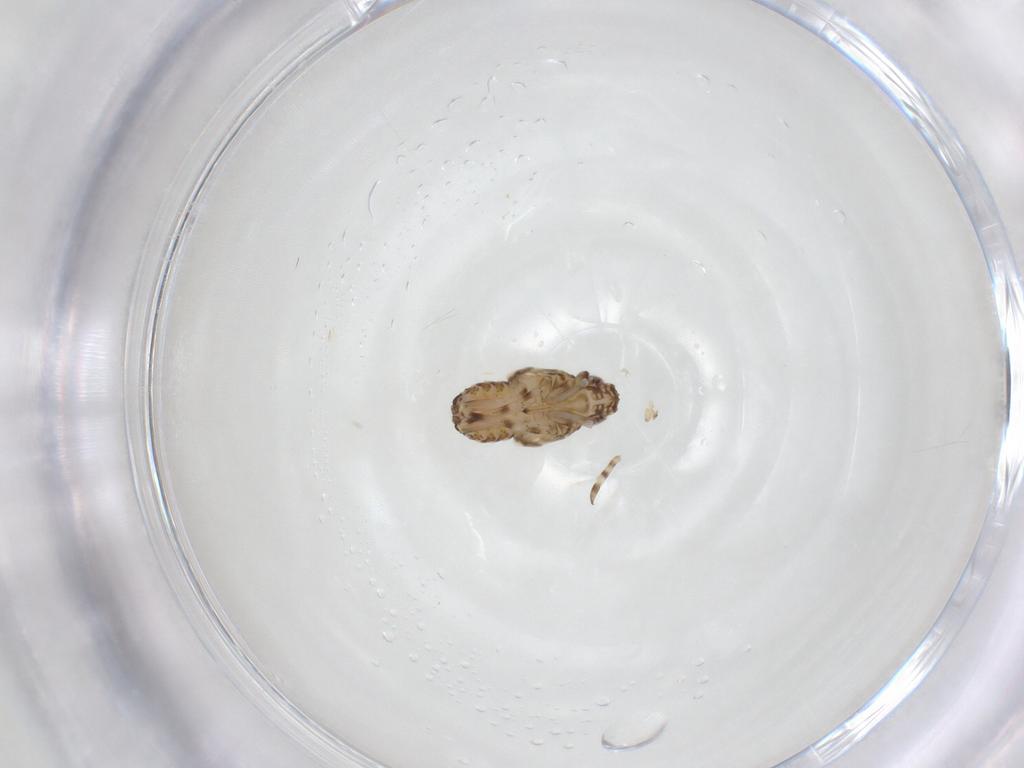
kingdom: Animalia
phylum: Arthropoda
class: Insecta
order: Hemiptera
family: Delphacidae
